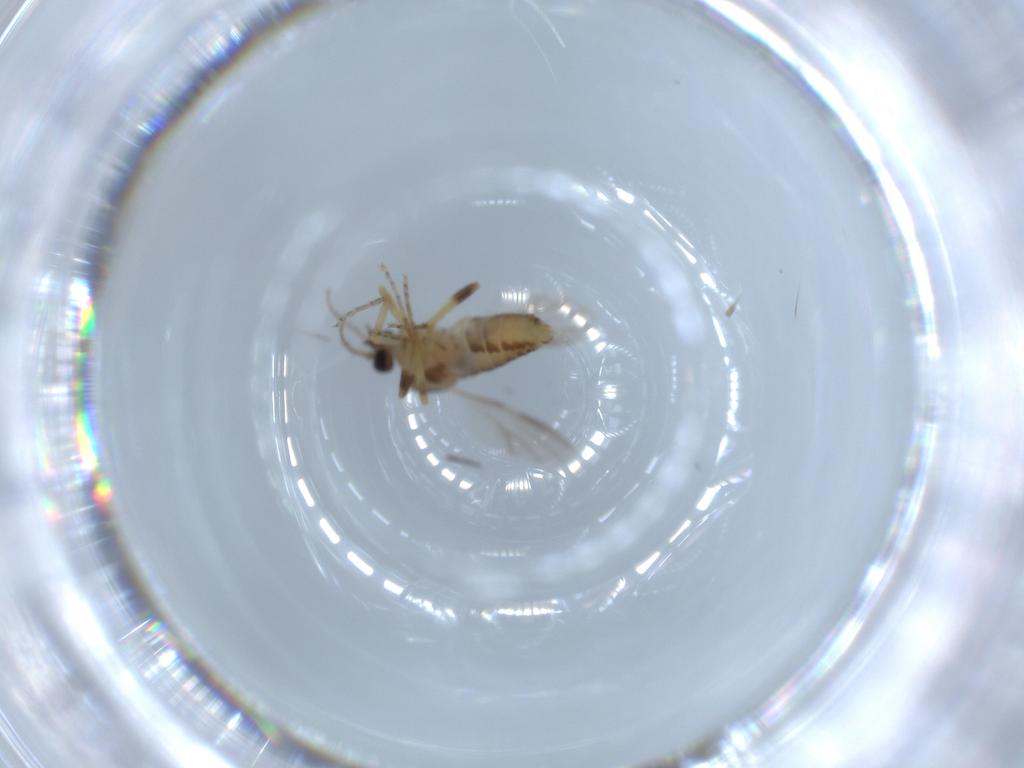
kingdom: Animalia
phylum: Arthropoda
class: Insecta
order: Diptera
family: Ceratopogonidae
